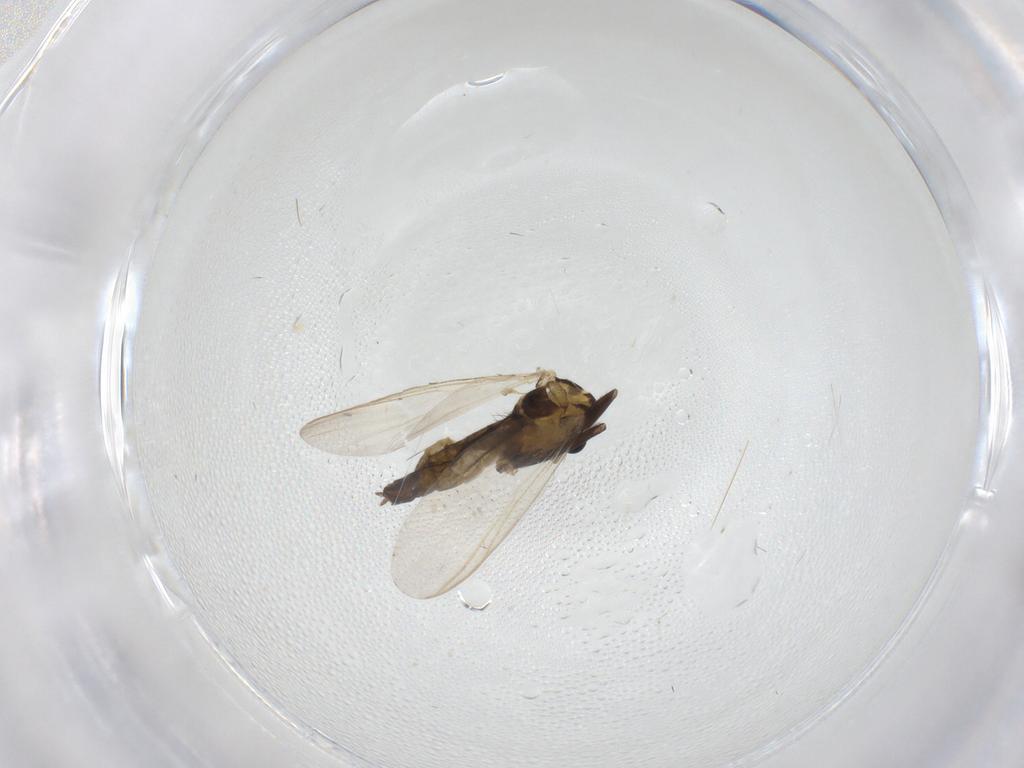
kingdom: Animalia
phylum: Arthropoda
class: Insecta
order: Diptera
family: Chironomidae
